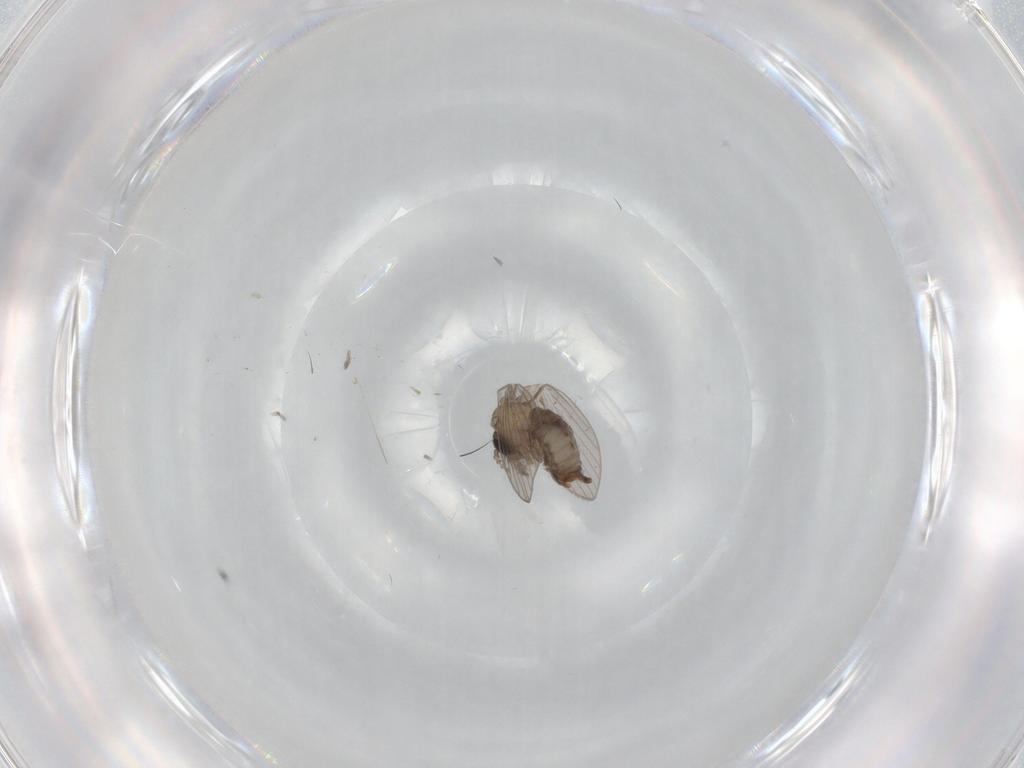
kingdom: Animalia
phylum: Arthropoda
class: Insecta
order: Diptera
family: Psychodidae
